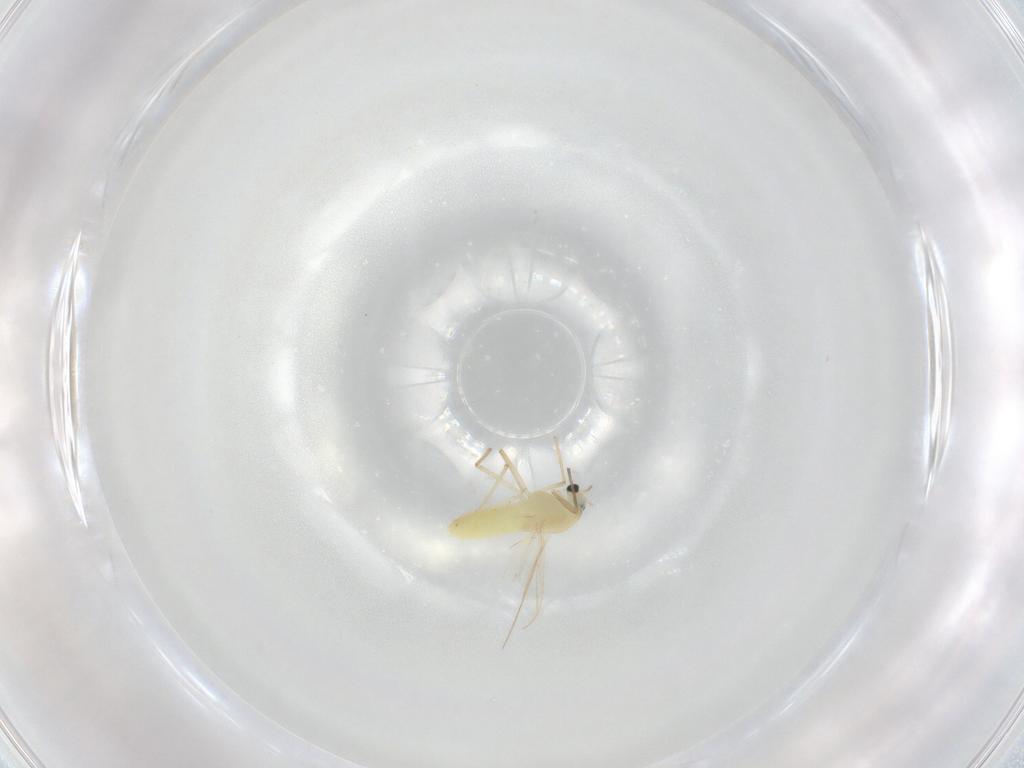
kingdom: Animalia
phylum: Arthropoda
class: Insecta
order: Diptera
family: Chironomidae
